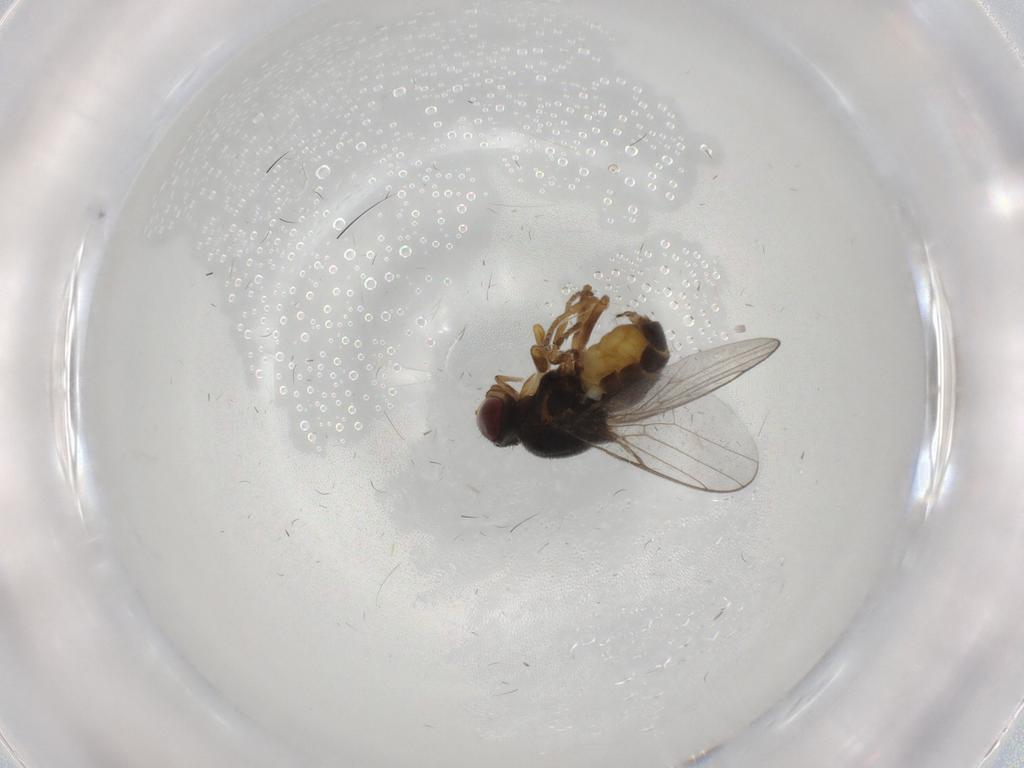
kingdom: Animalia
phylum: Arthropoda
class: Insecta
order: Diptera
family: Chloropidae
